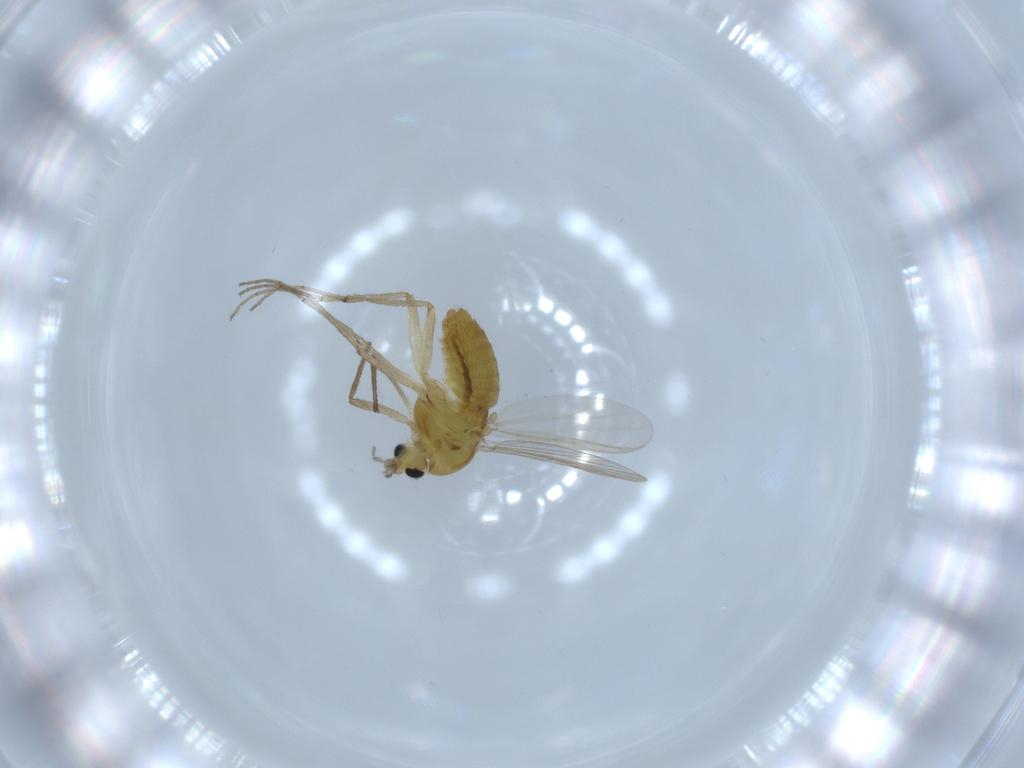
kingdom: Animalia
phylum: Arthropoda
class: Insecta
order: Diptera
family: Chironomidae
